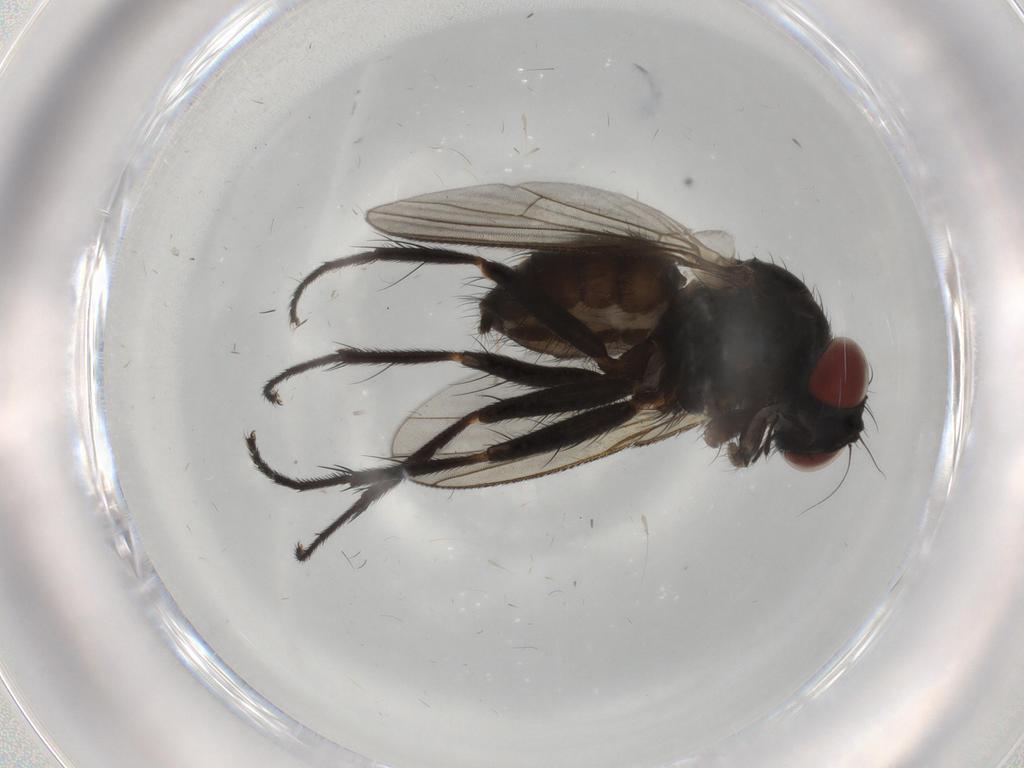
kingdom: Animalia
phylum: Arthropoda
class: Insecta
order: Diptera
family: Muscidae
